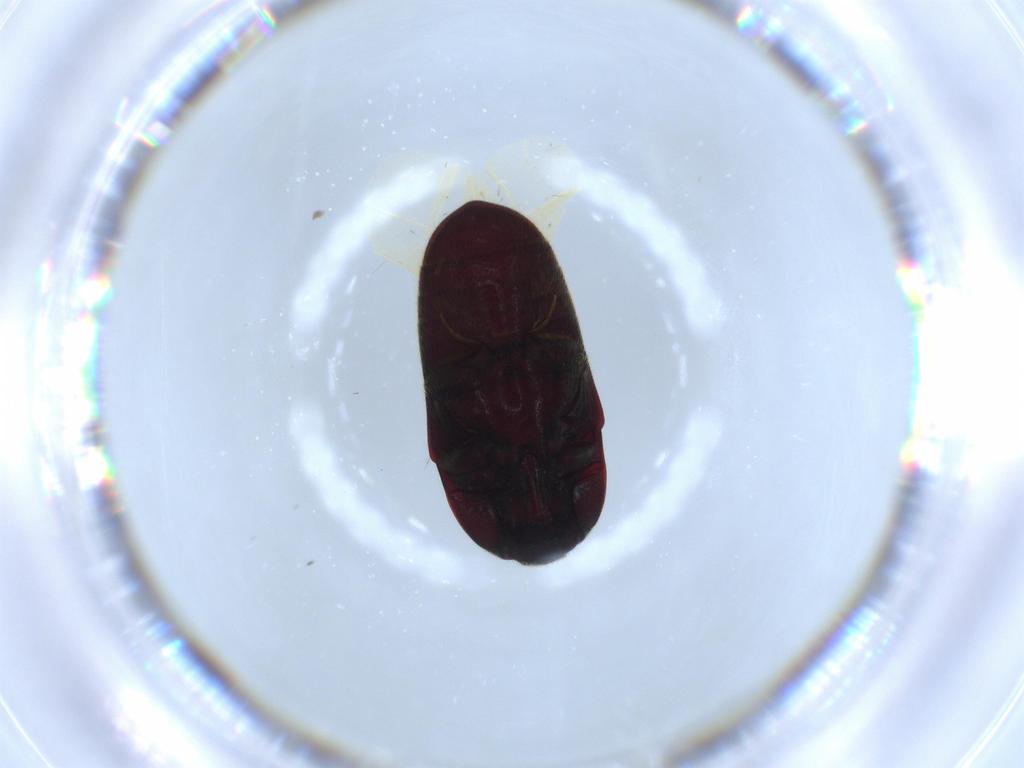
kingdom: Animalia
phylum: Arthropoda
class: Insecta
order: Coleoptera
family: Throscidae
